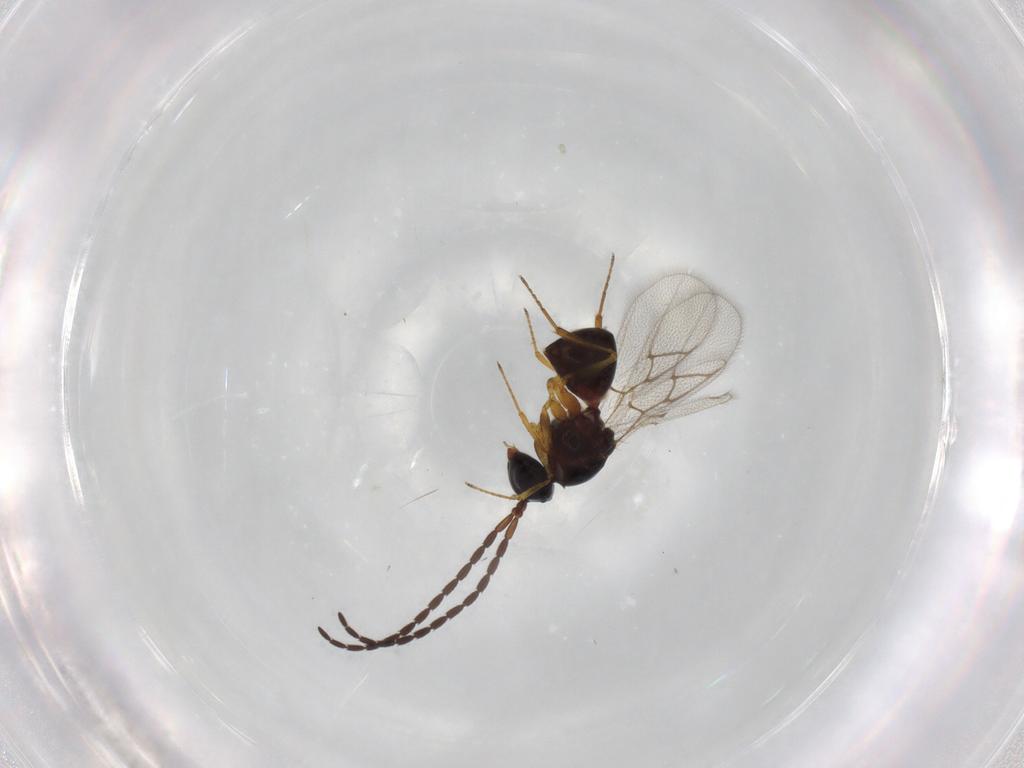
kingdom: Animalia
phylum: Arthropoda
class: Insecta
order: Hymenoptera
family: Figitidae
